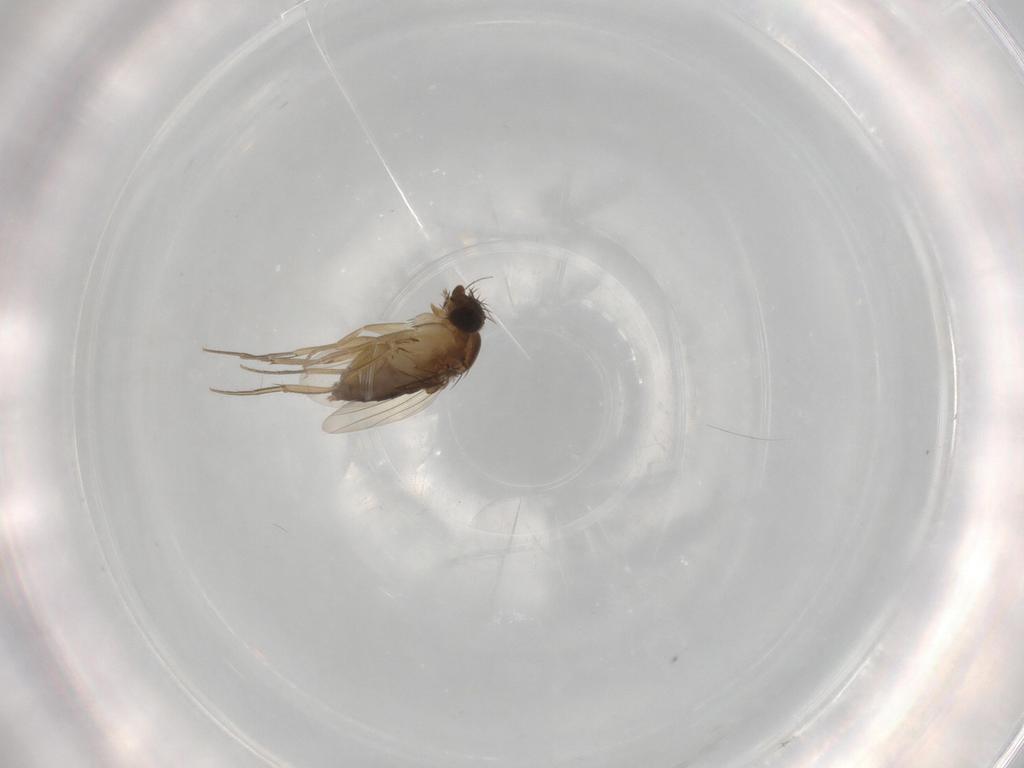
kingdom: Animalia
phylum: Arthropoda
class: Insecta
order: Diptera
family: Phoridae
